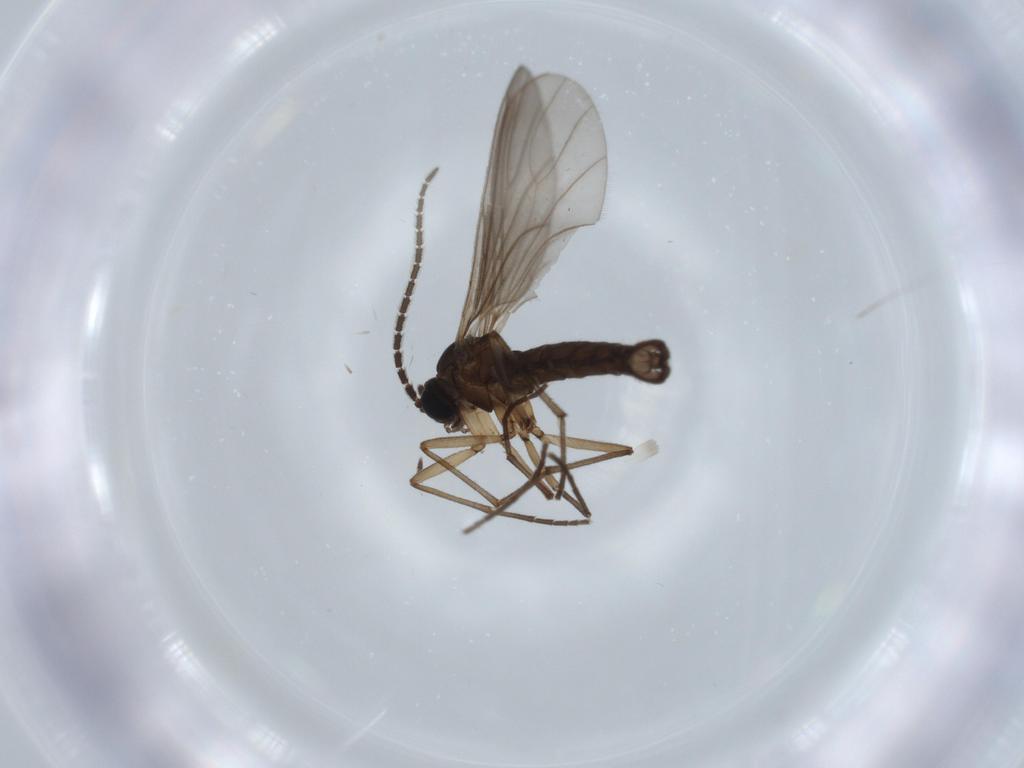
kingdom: Animalia
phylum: Arthropoda
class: Insecta
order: Diptera
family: Sciaridae
